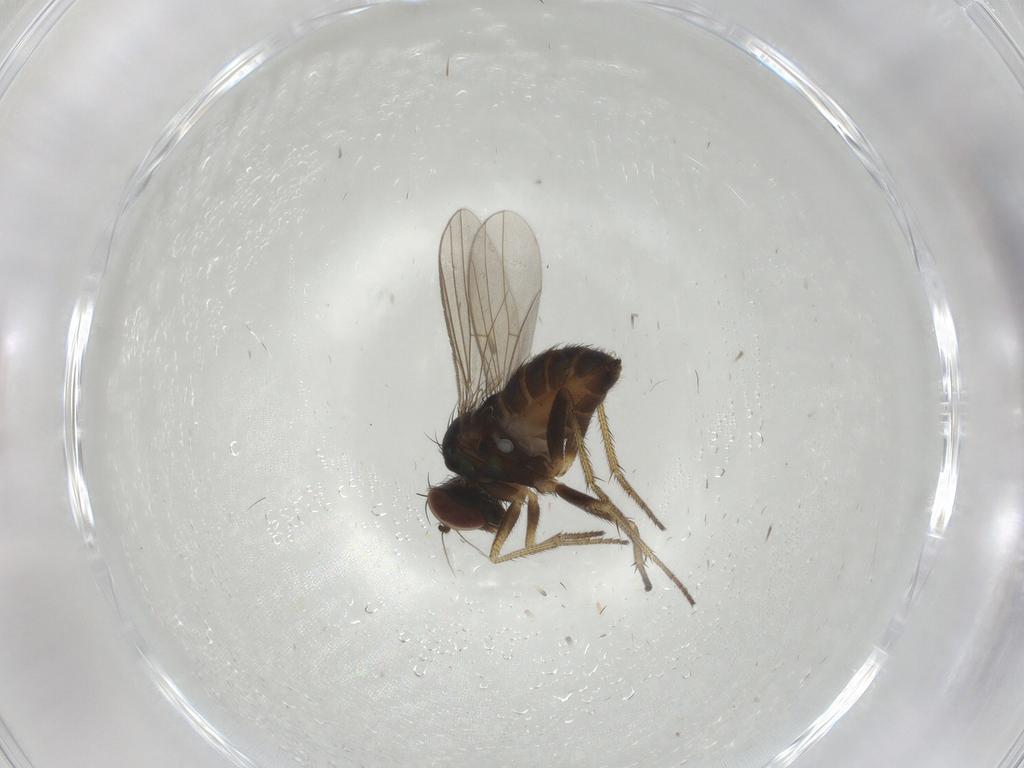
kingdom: Animalia
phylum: Arthropoda
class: Insecta
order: Diptera
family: Dolichopodidae
